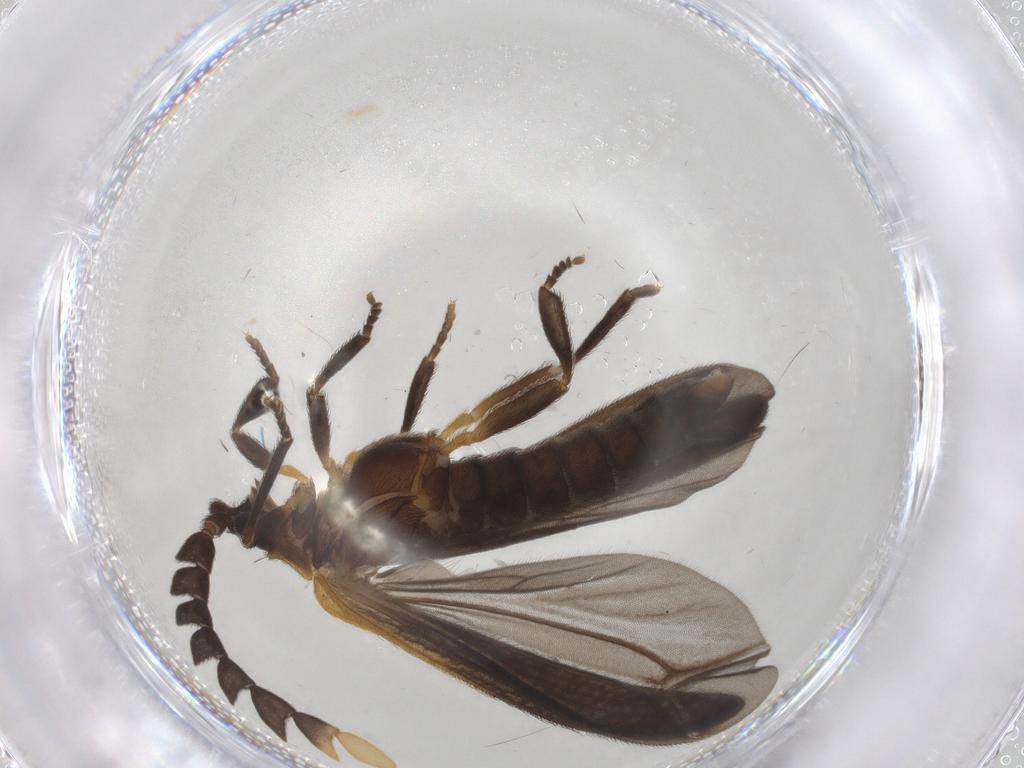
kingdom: Animalia
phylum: Arthropoda
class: Insecta
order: Coleoptera
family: Lycidae
